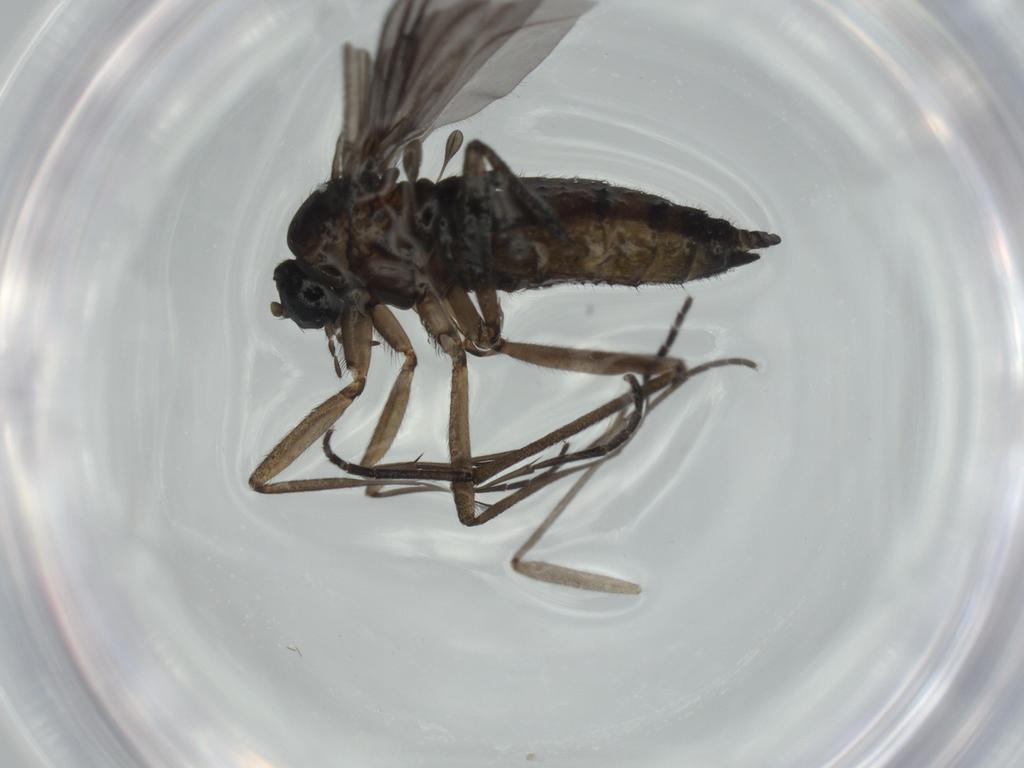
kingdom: Animalia
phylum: Arthropoda
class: Insecta
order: Diptera
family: Sciaridae
